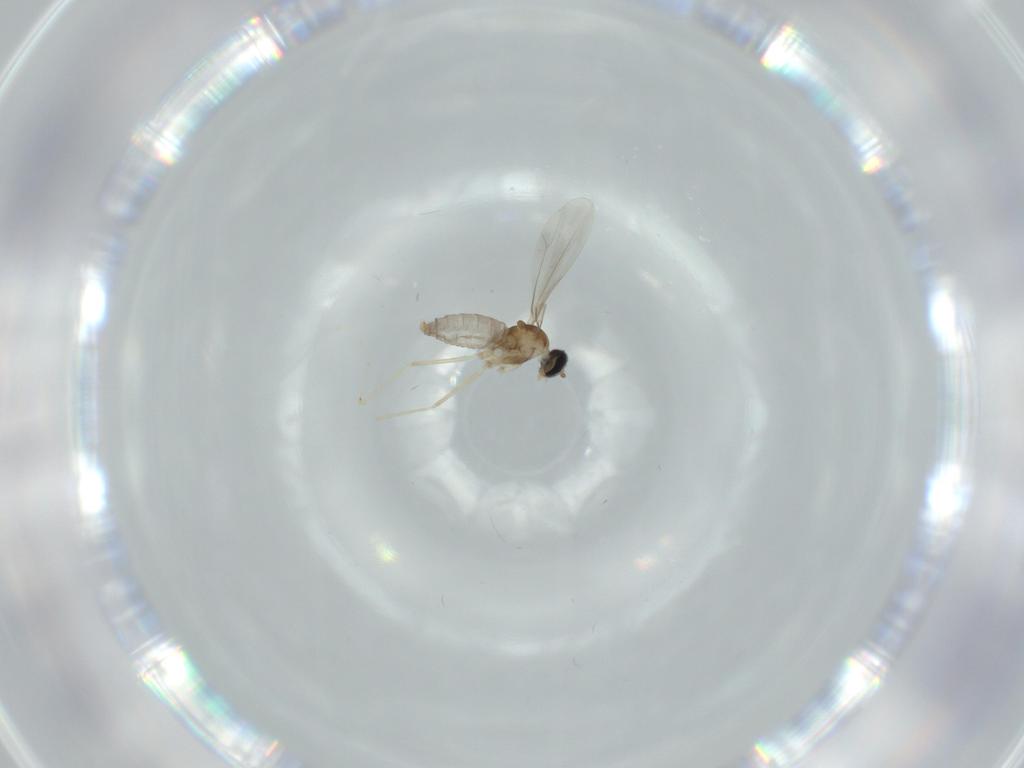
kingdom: Animalia
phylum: Arthropoda
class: Insecta
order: Diptera
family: Cecidomyiidae
